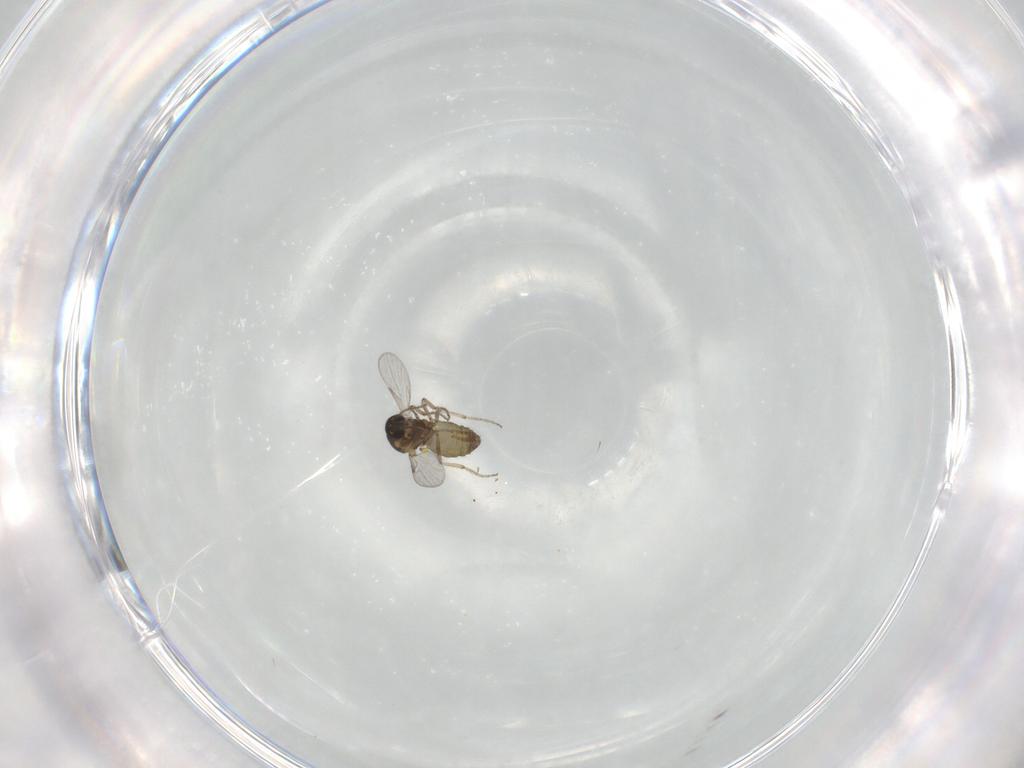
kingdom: Animalia
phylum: Arthropoda
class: Insecta
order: Diptera
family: Ceratopogonidae
